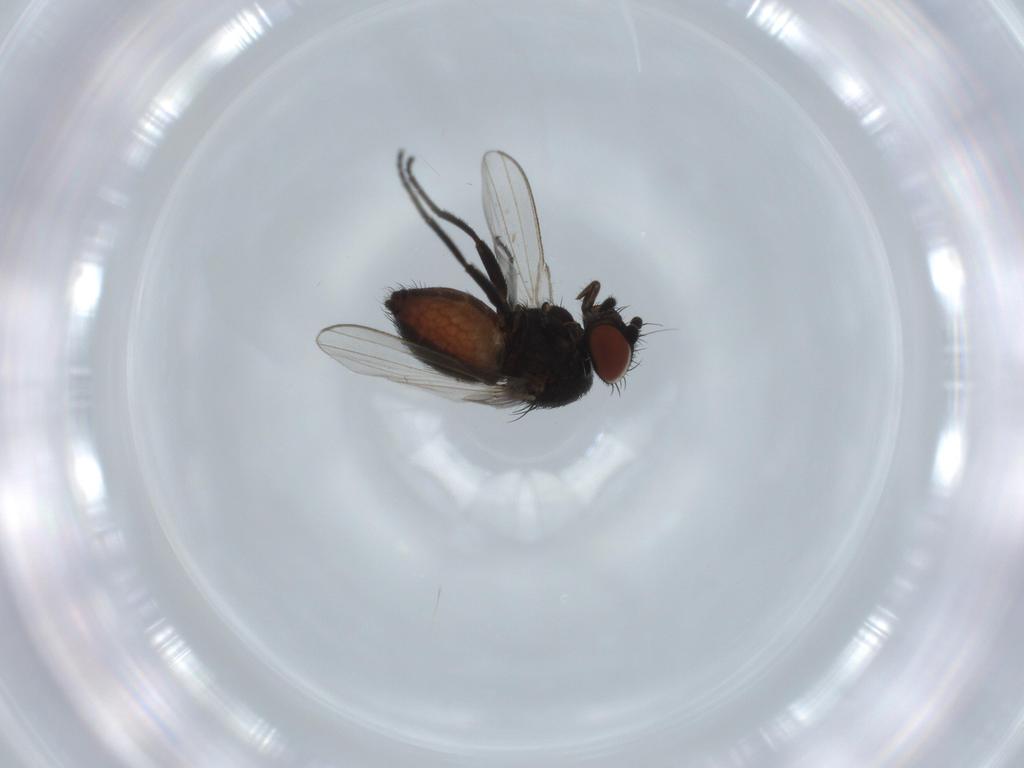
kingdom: Animalia
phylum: Arthropoda
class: Insecta
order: Diptera
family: Milichiidae
